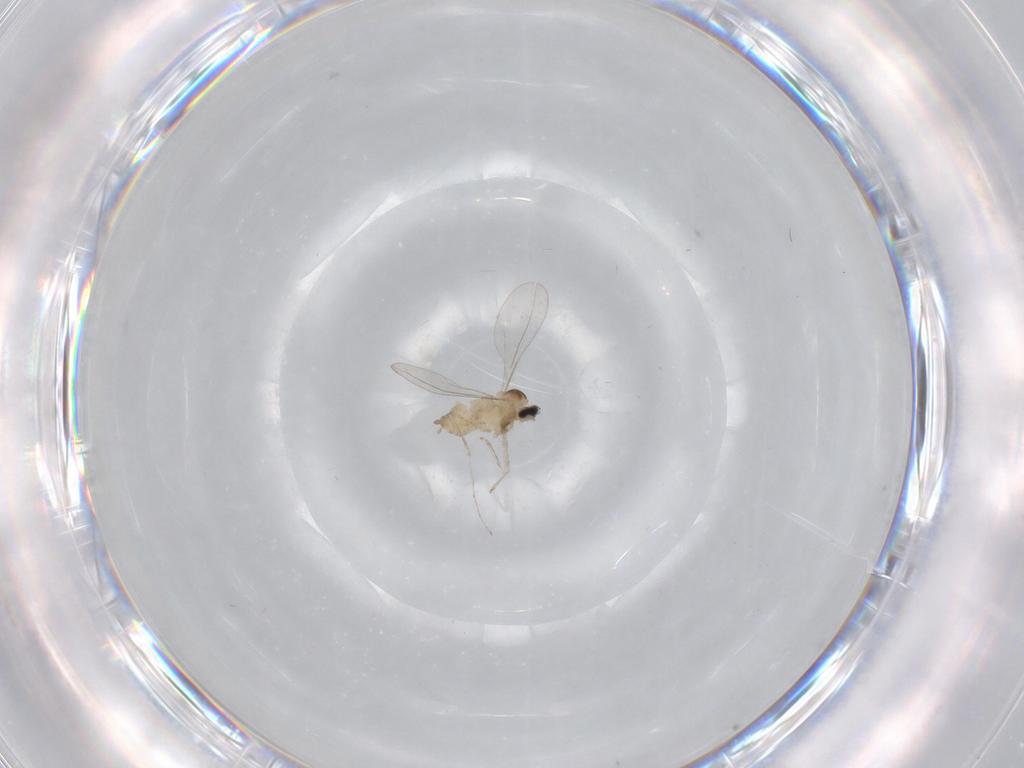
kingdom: Animalia
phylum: Arthropoda
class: Insecta
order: Diptera
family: Cecidomyiidae
